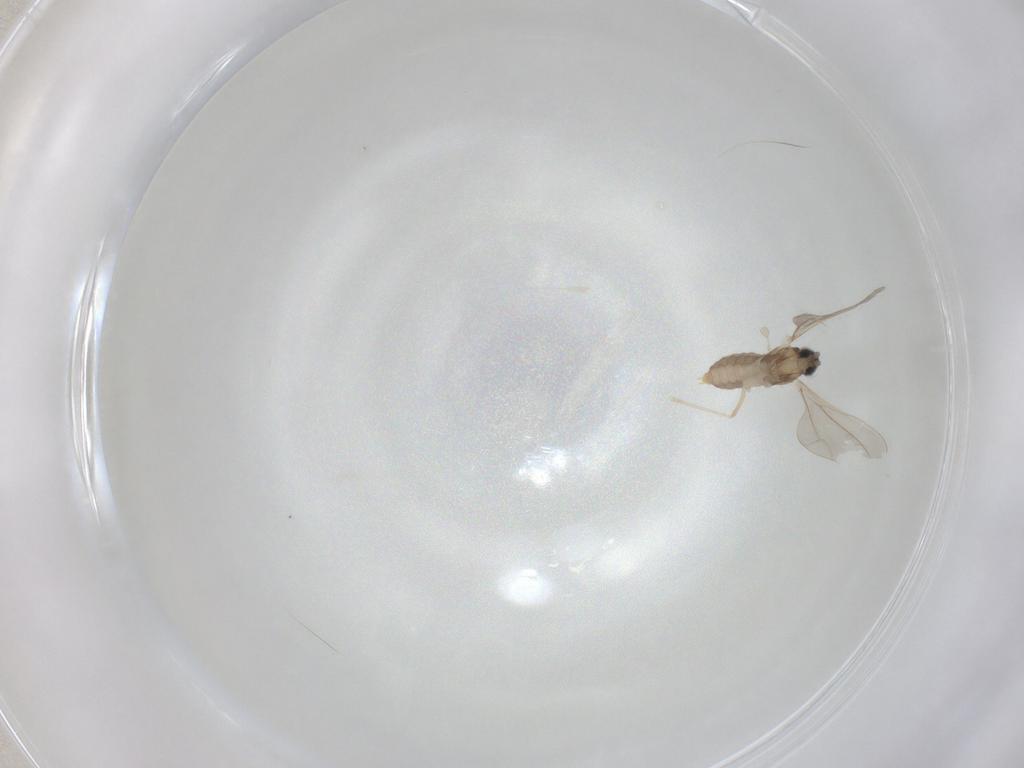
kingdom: Animalia
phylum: Arthropoda
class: Insecta
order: Diptera
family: Cecidomyiidae
